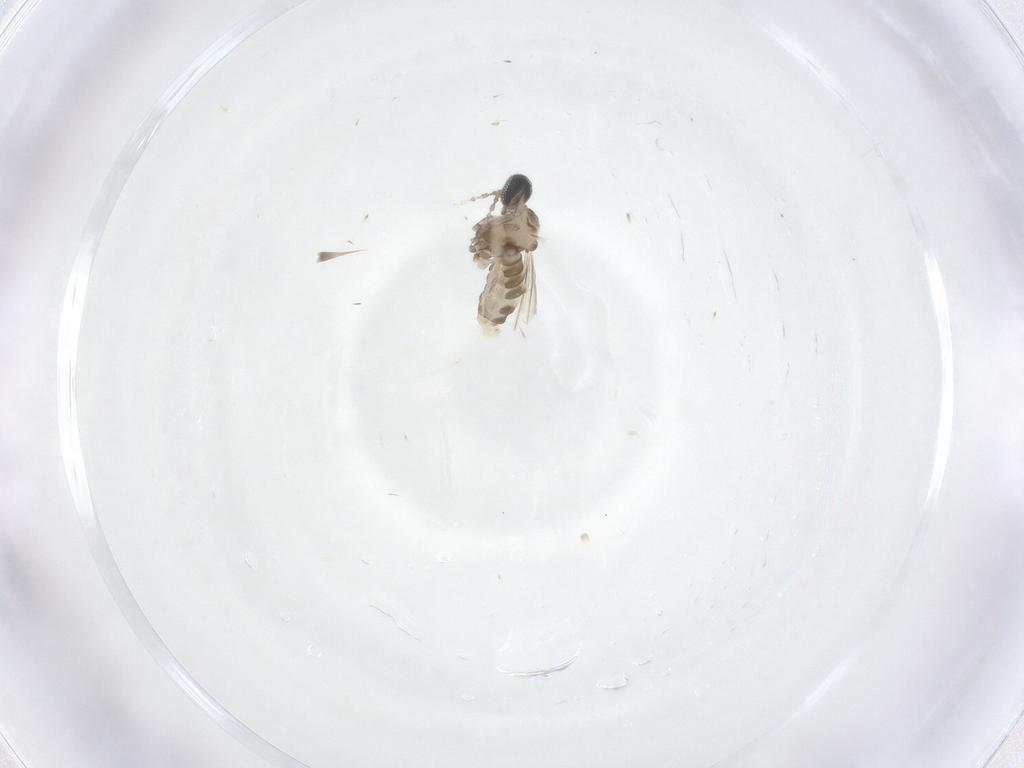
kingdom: Animalia
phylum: Arthropoda
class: Insecta
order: Diptera
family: Cecidomyiidae
